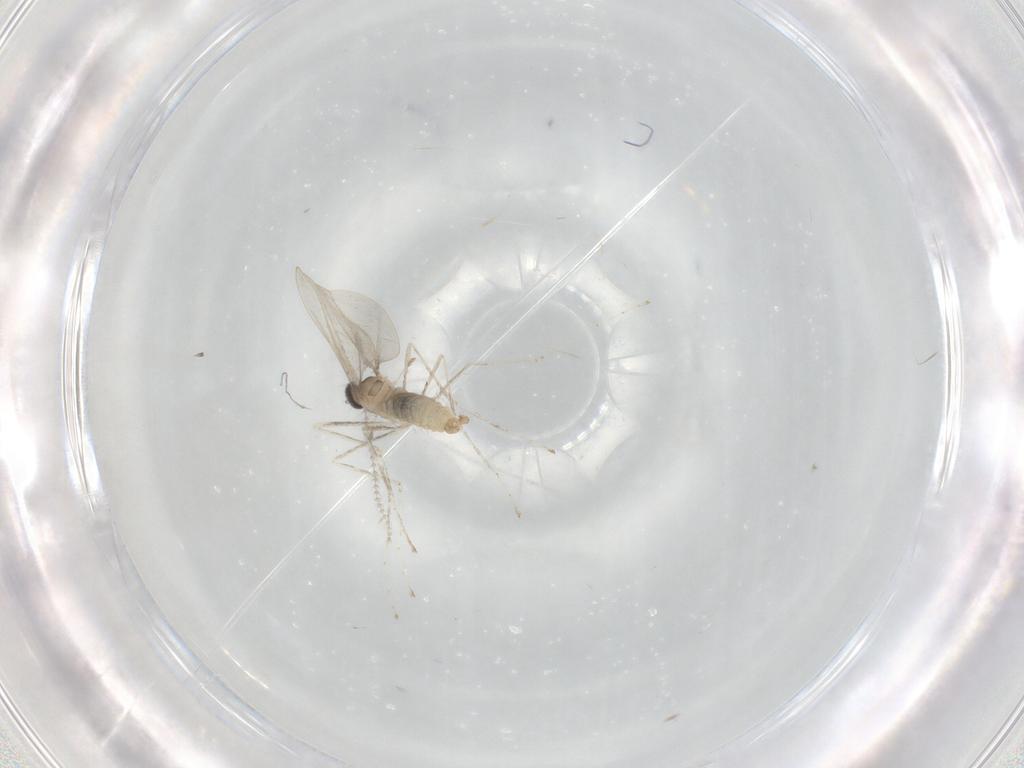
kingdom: Animalia
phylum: Arthropoda
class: Insecta
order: Diptera
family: Cecidomyiidae
